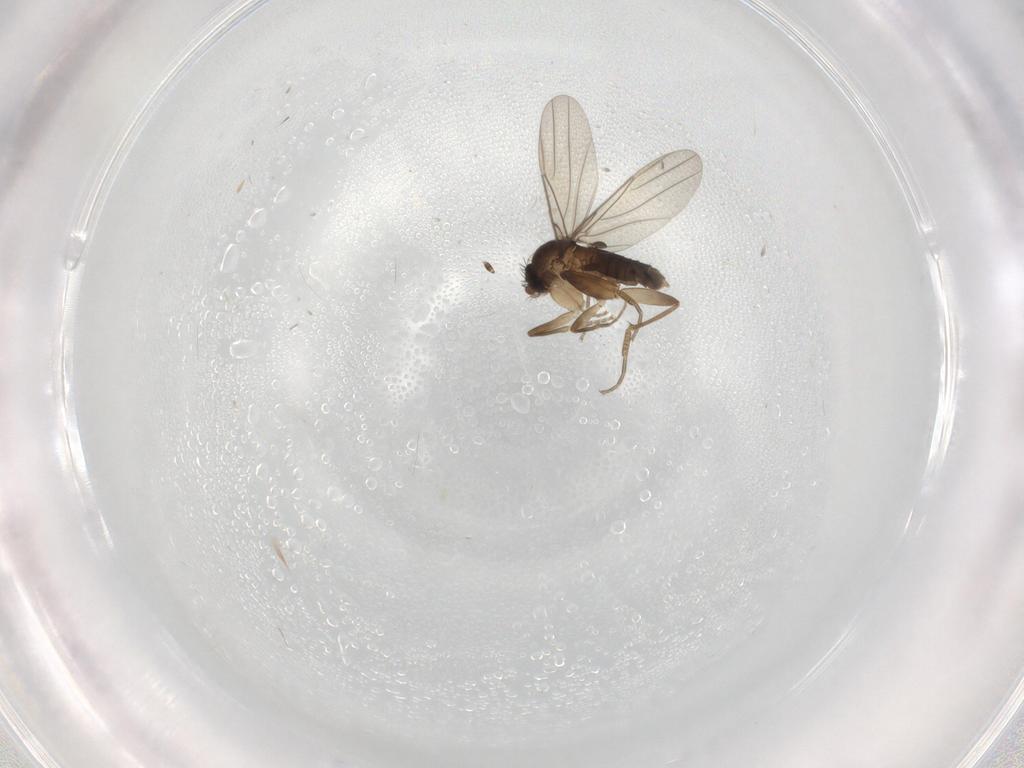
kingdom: Animalia
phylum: Arthropoda
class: Insecta
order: Diptera
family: Phoridae
